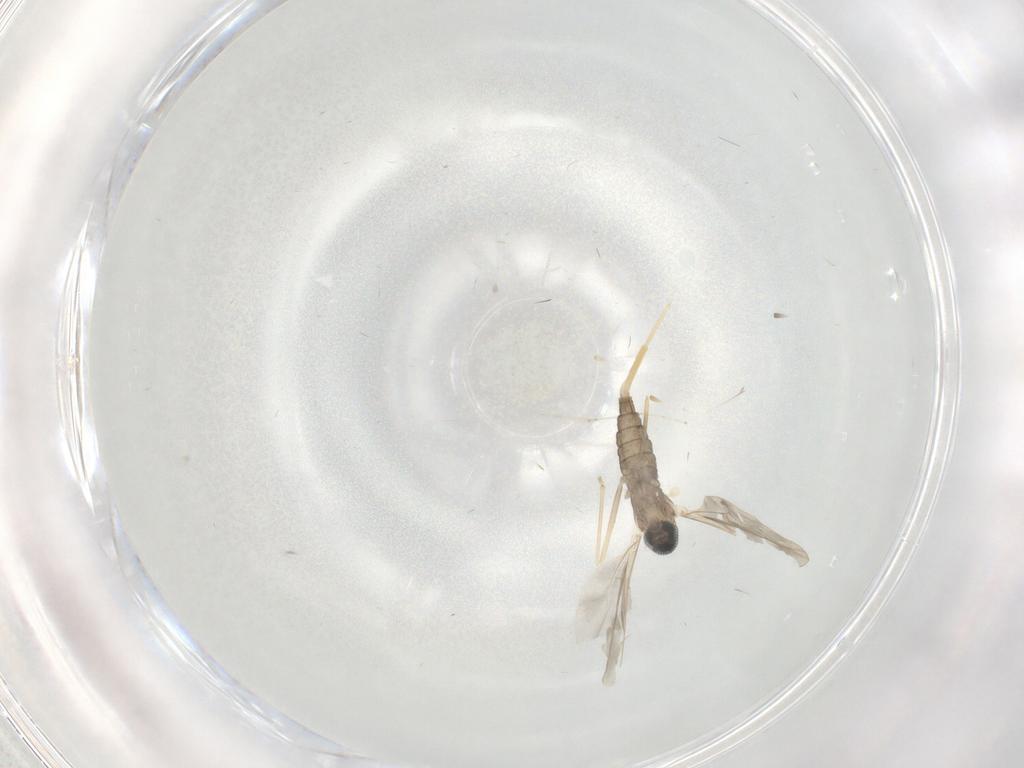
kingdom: Animalia
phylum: Arthropoda
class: Insecta
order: Diptera
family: Cecidomyiidae
